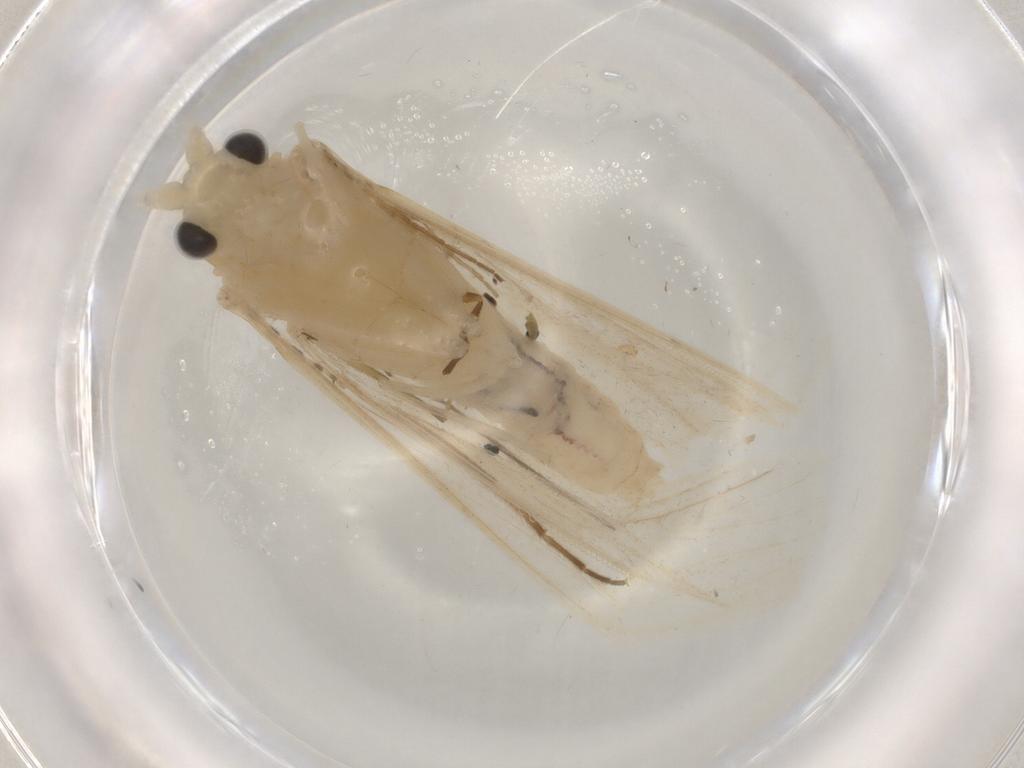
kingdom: Animalia
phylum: Arthropoda
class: Insecta
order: Trichoptera
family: Leptoceridae
